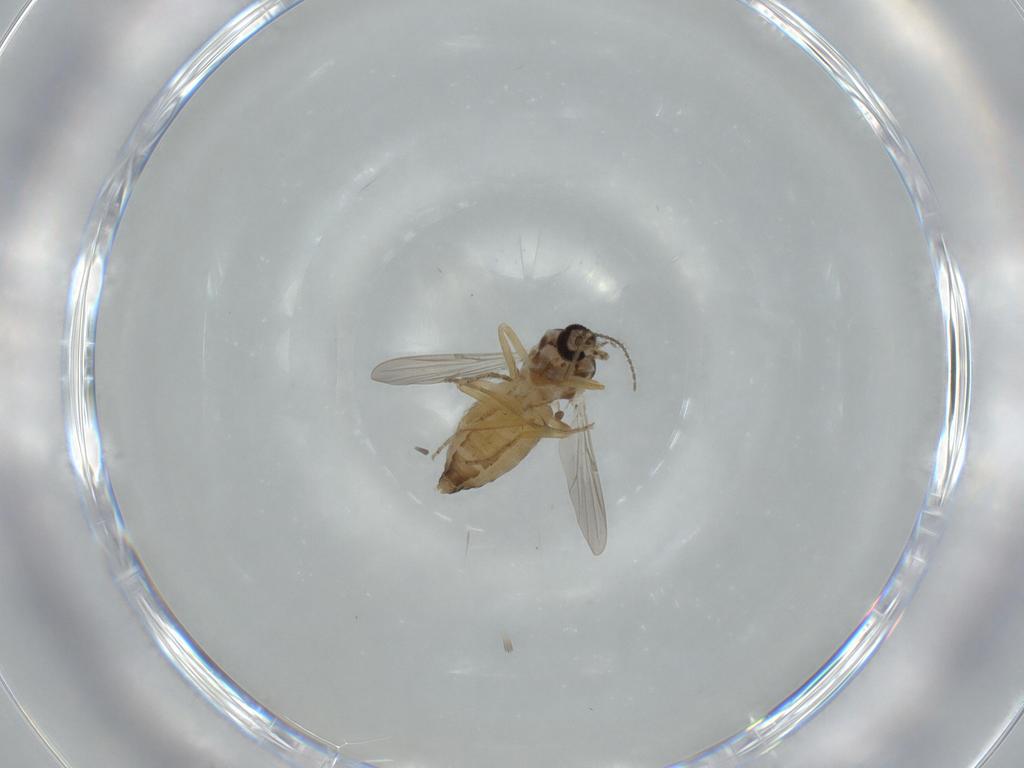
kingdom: Animalia
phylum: Arthropoda
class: Insecta
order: Diptera
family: Ceratopogonidae
